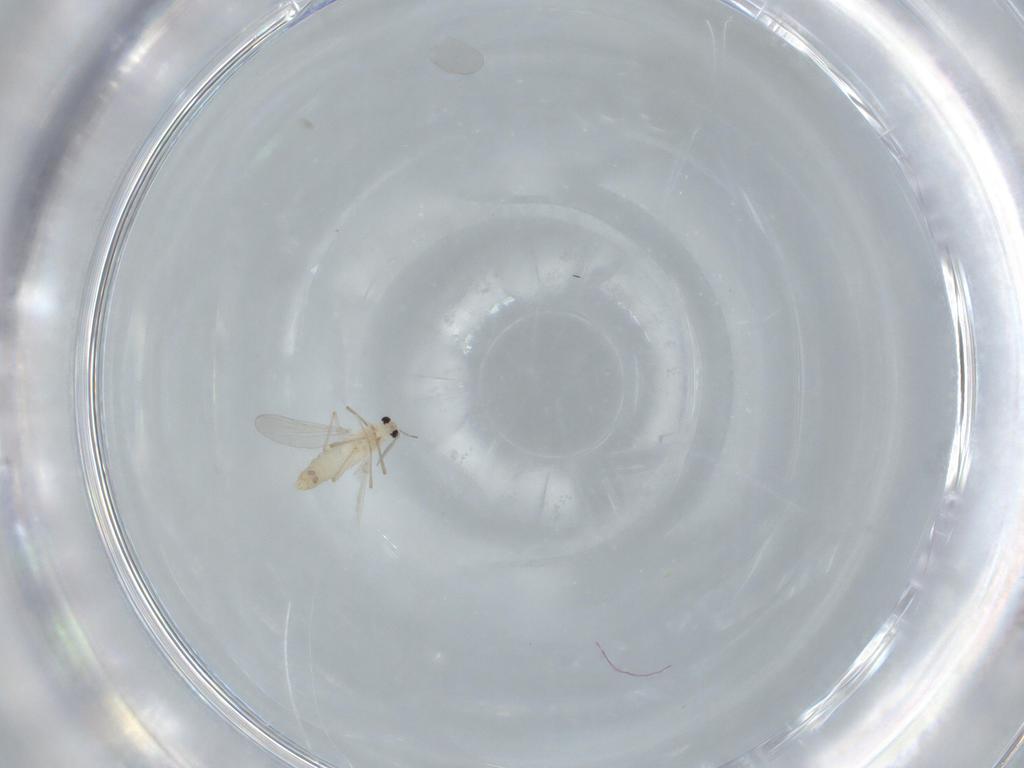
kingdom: Animalia
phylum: Arthropoda
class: Insecta
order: Diptera
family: Chironomidae
